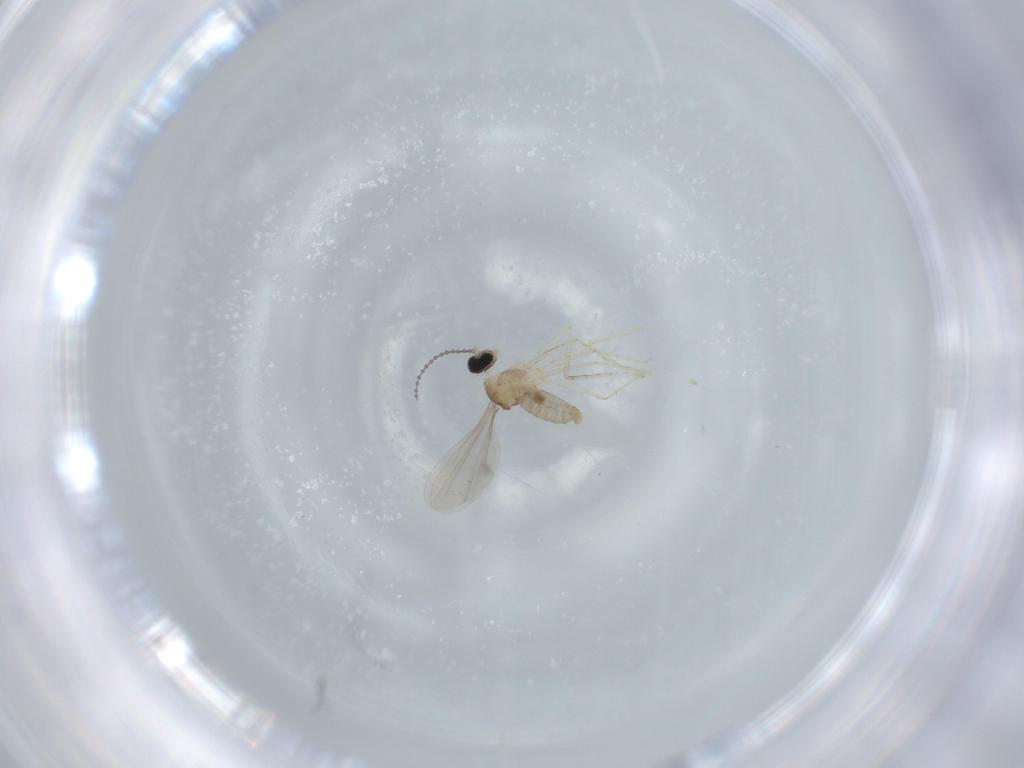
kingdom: Animalia
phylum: Arthropoda
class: Insecta
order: Diptera
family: Cecidomyiidae
